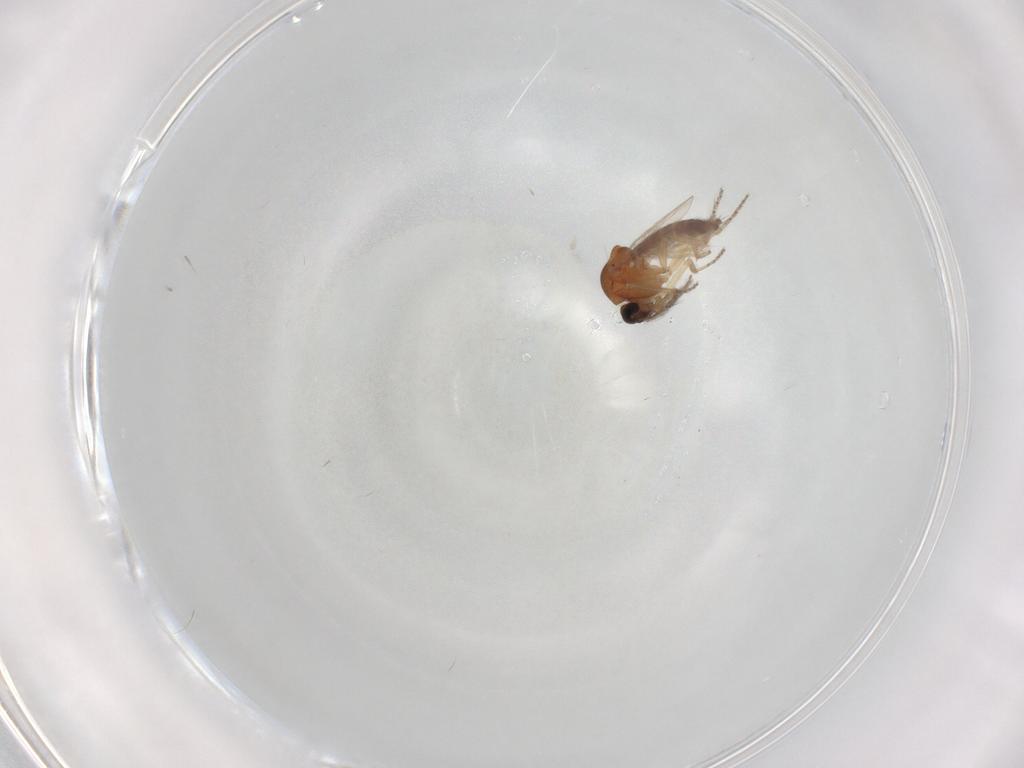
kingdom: Animalia
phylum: Arthropoda
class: Insecta
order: Diptera
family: Ceratopogonidae
